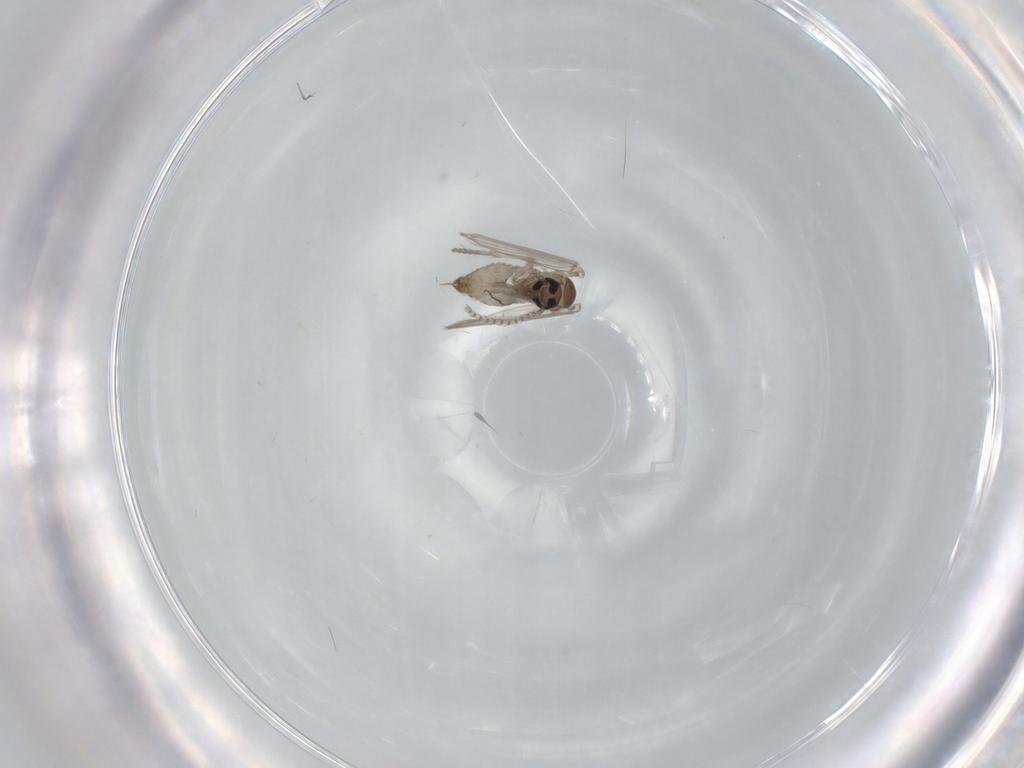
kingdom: Animalia
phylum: Arthropoda
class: Insecta
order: Diptera
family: Psychodidae
